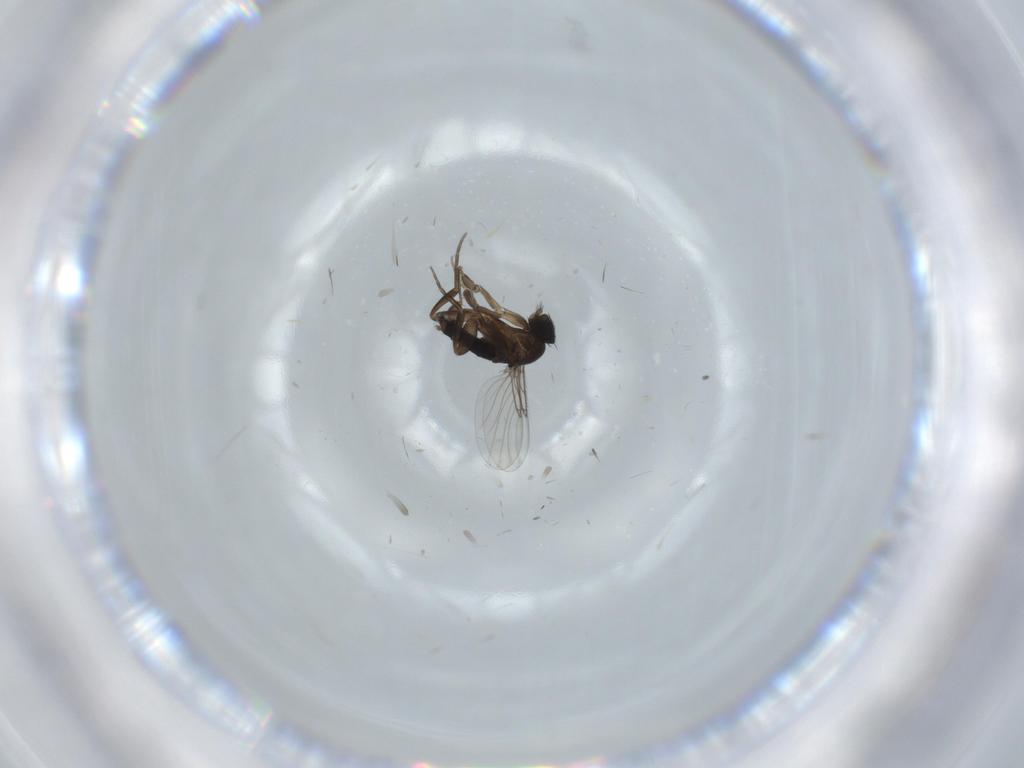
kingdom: Animalia
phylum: Arthropoda
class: Insecta
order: Diptera
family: Phoridae
